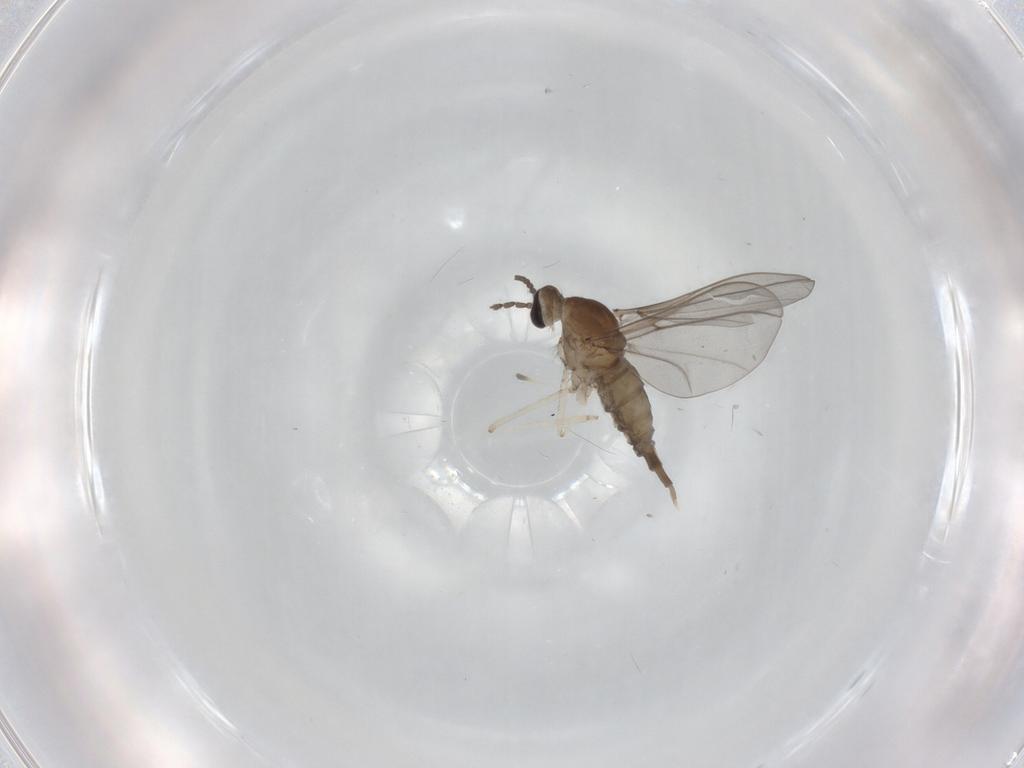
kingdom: Animalia
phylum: Arthropoda
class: Insecta
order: Diptera
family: Cecidomyiidae
